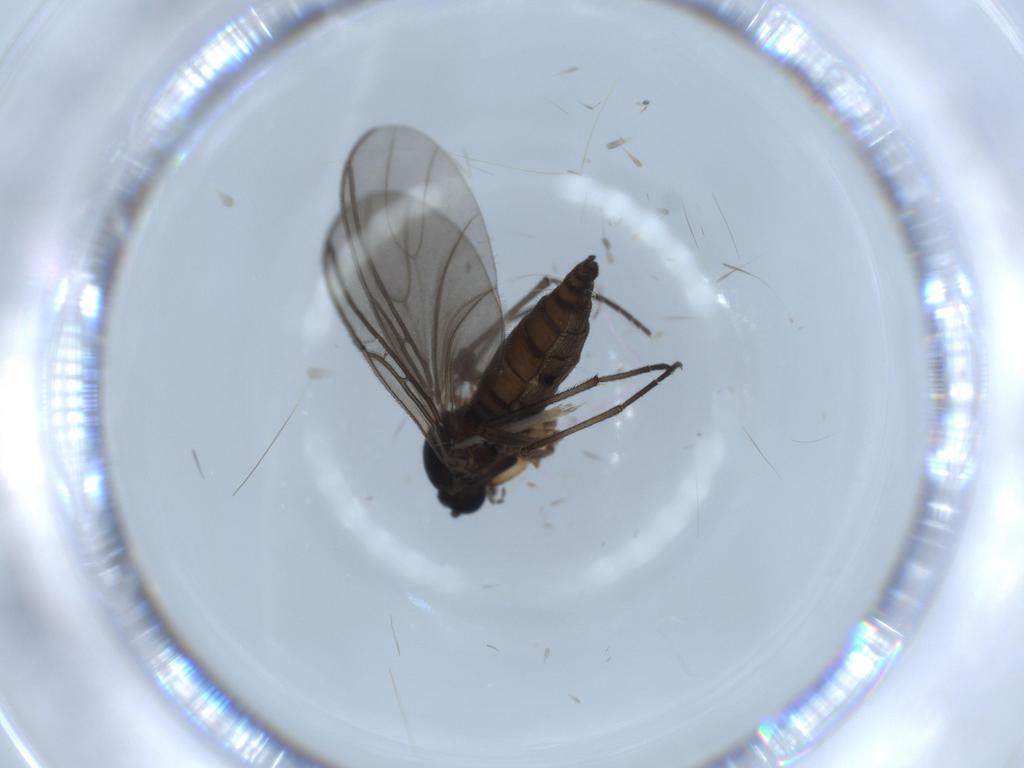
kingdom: Animalia
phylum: Arthropoda
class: Insecta
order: Diptera
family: Sciaridae
